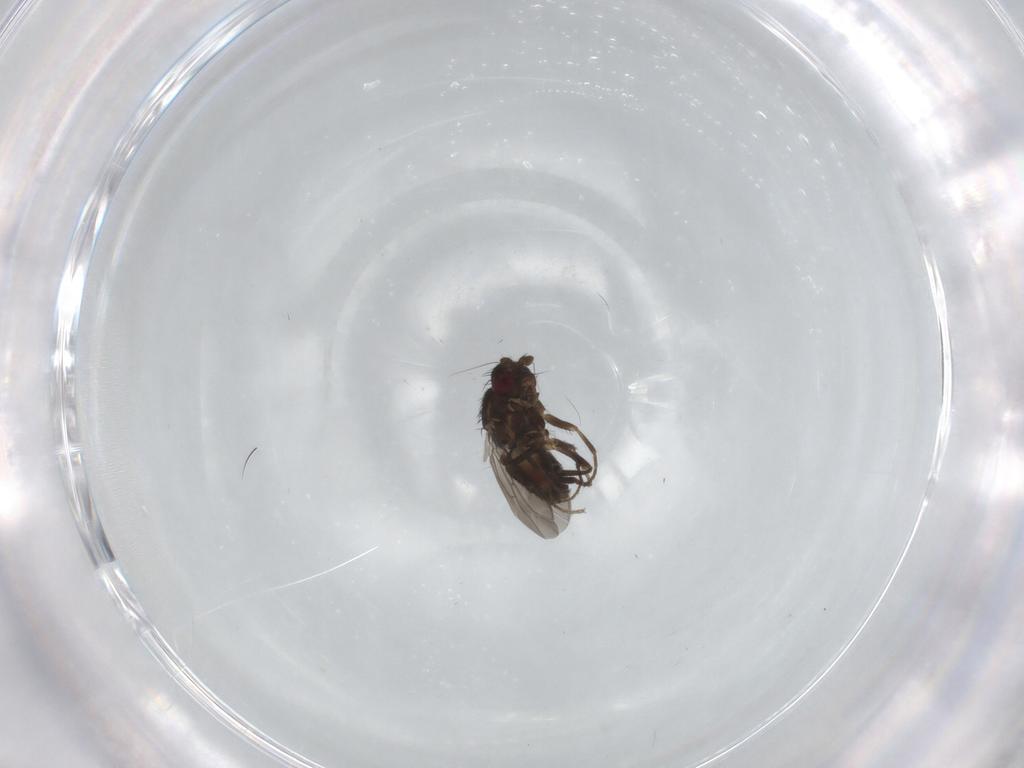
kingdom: Animalia
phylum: Arthropoda
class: Insecta
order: Diptera
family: Sphaeroceridae
